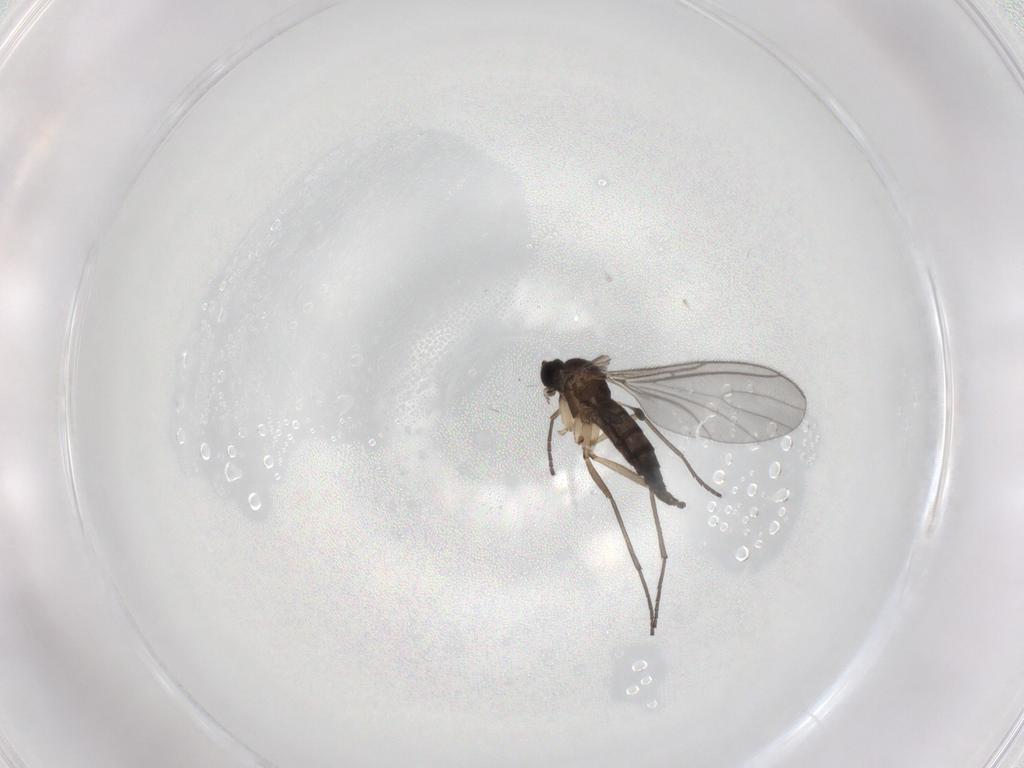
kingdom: Animalia
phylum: Arthropoda
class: Insecta
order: Diptera
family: Sciaridae
